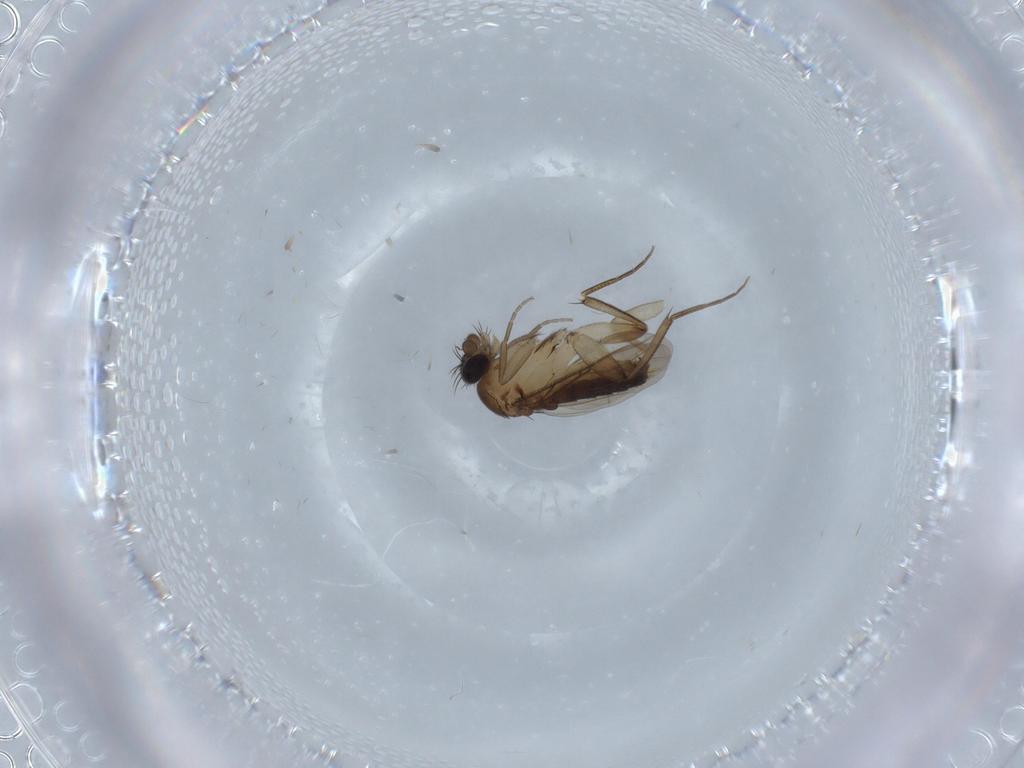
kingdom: Animalia
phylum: Arthropoda
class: Insecta
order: Diptera
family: Phoridae
